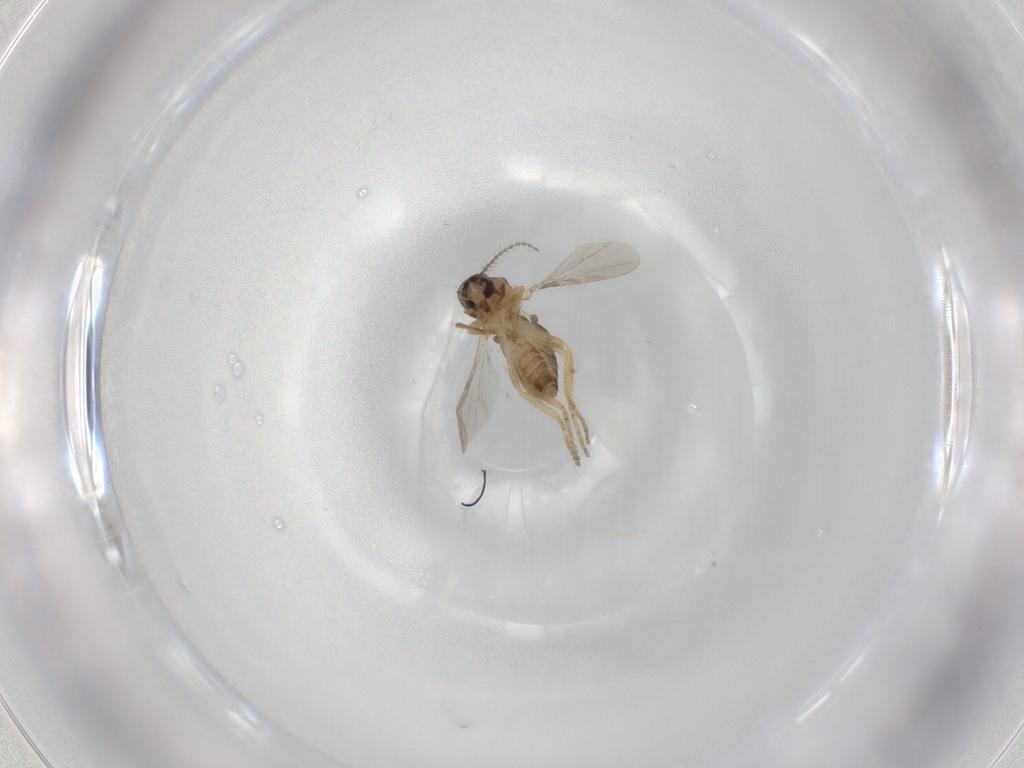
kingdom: Animalia
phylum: Arthropoda
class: Insecta
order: Diptera
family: Ceratopogonidae
